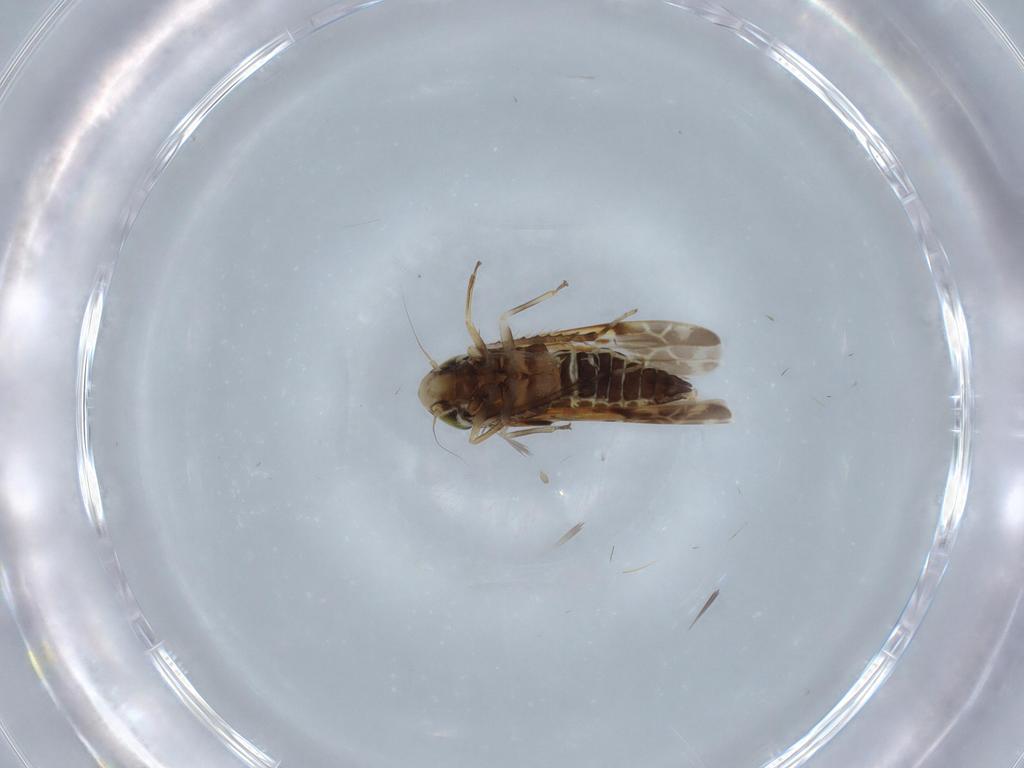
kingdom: Animalia
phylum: Arthropoda
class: Insecta
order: Hemiptera
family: Cicadellidae
